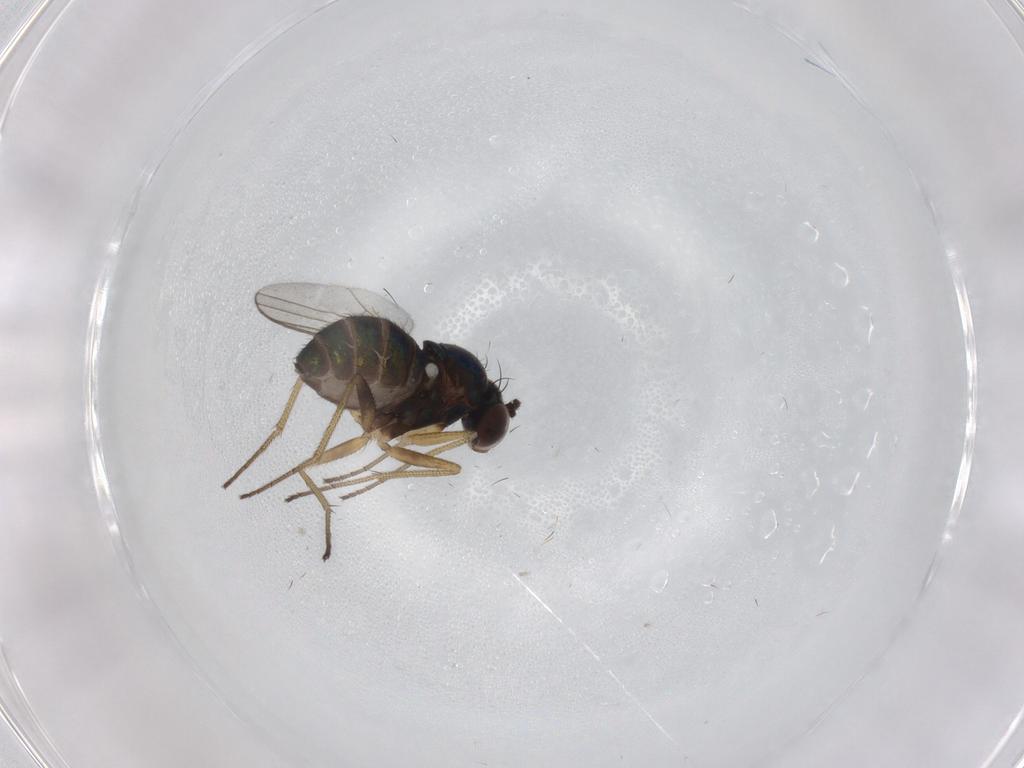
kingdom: Animalia
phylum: Arthropoda
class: Insecta
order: Diptera
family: Dolichopodidae
